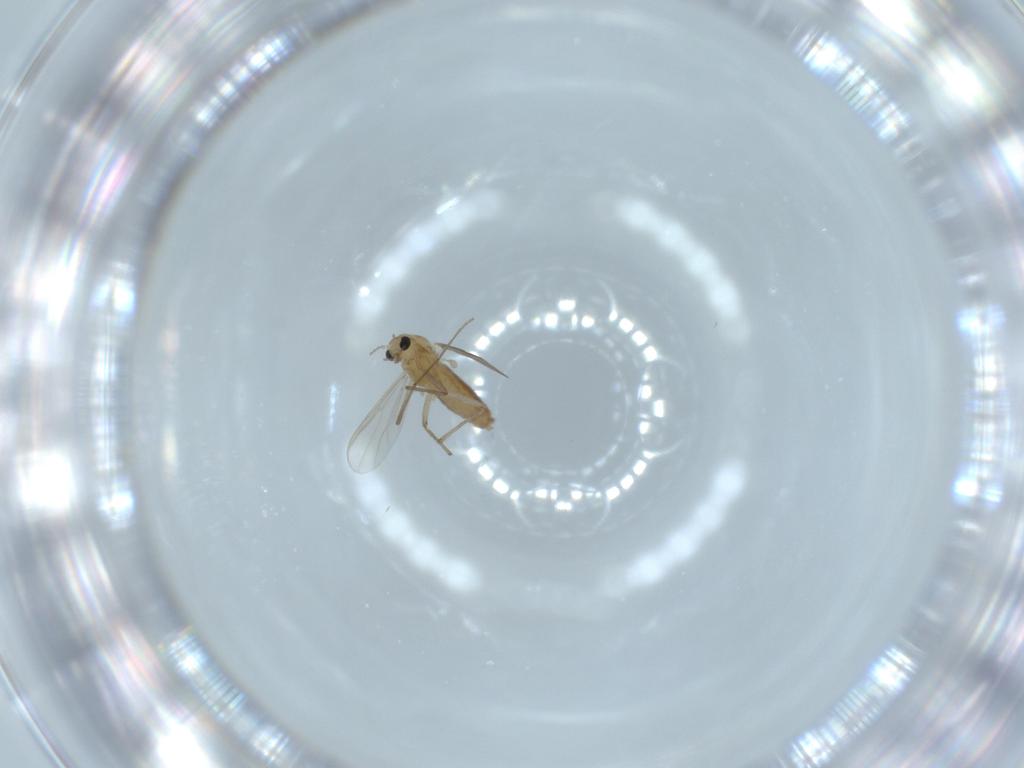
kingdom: Animalia
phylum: Arthropoda
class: Insecta
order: Diptera
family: Chironomidae
